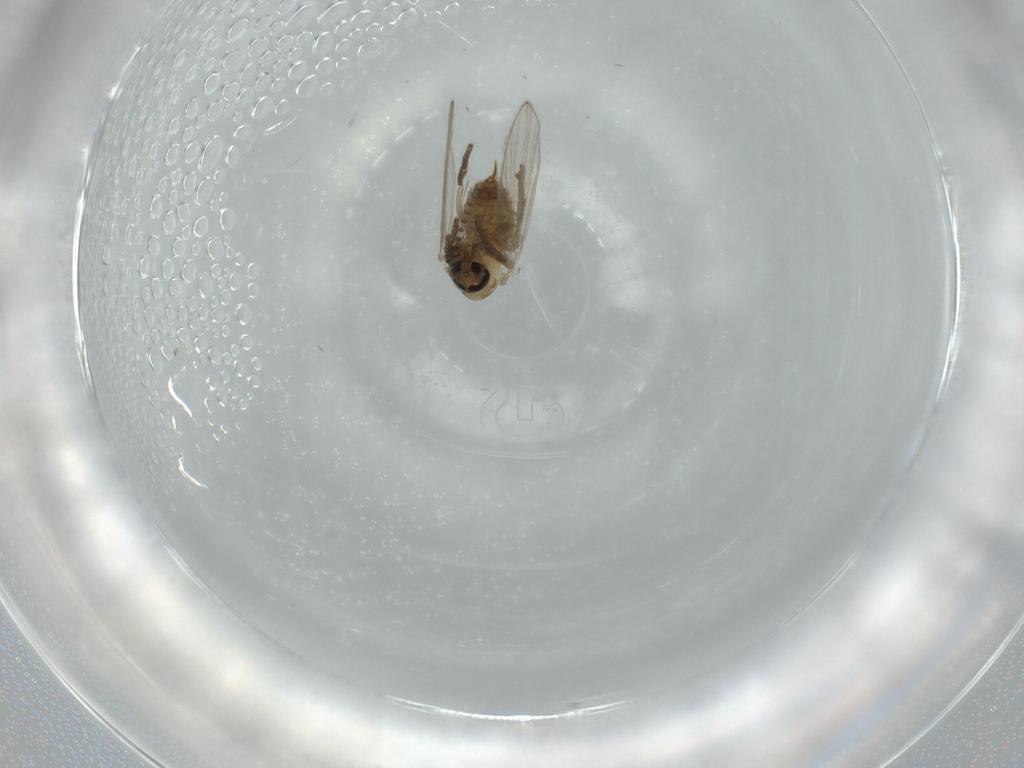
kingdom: Animalia
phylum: Arthropoda
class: Insecta
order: Diptera
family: Psychodidae
